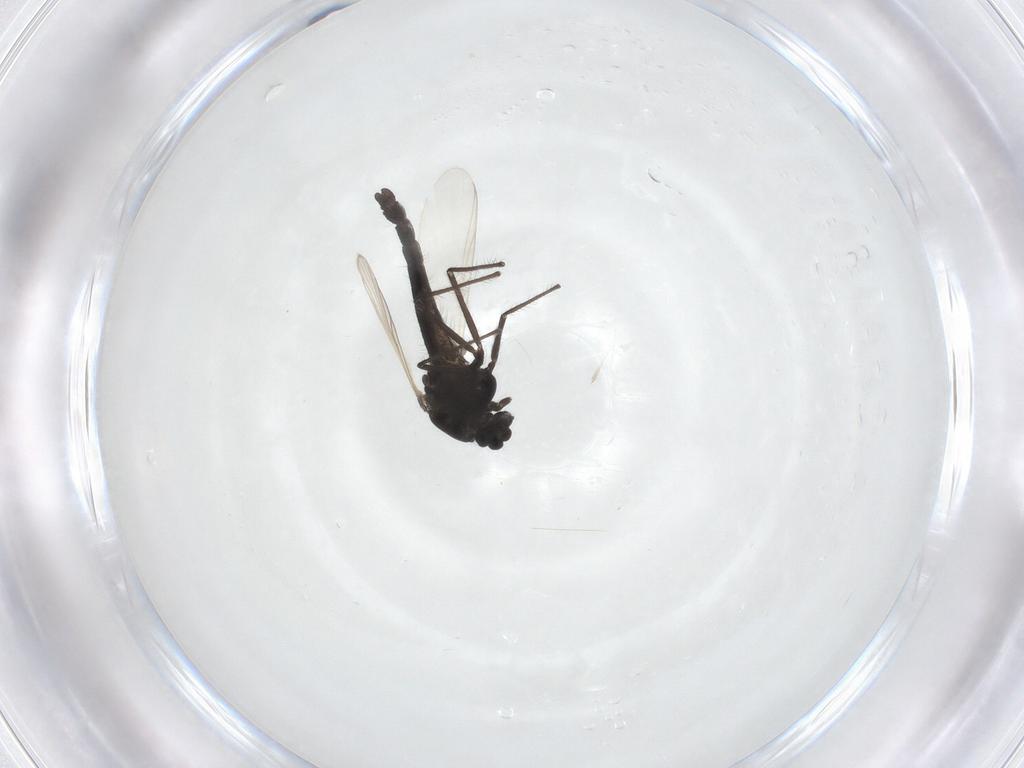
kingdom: Animalia
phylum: Arthropoda
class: Insecta
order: Diptera
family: Chironomidae
